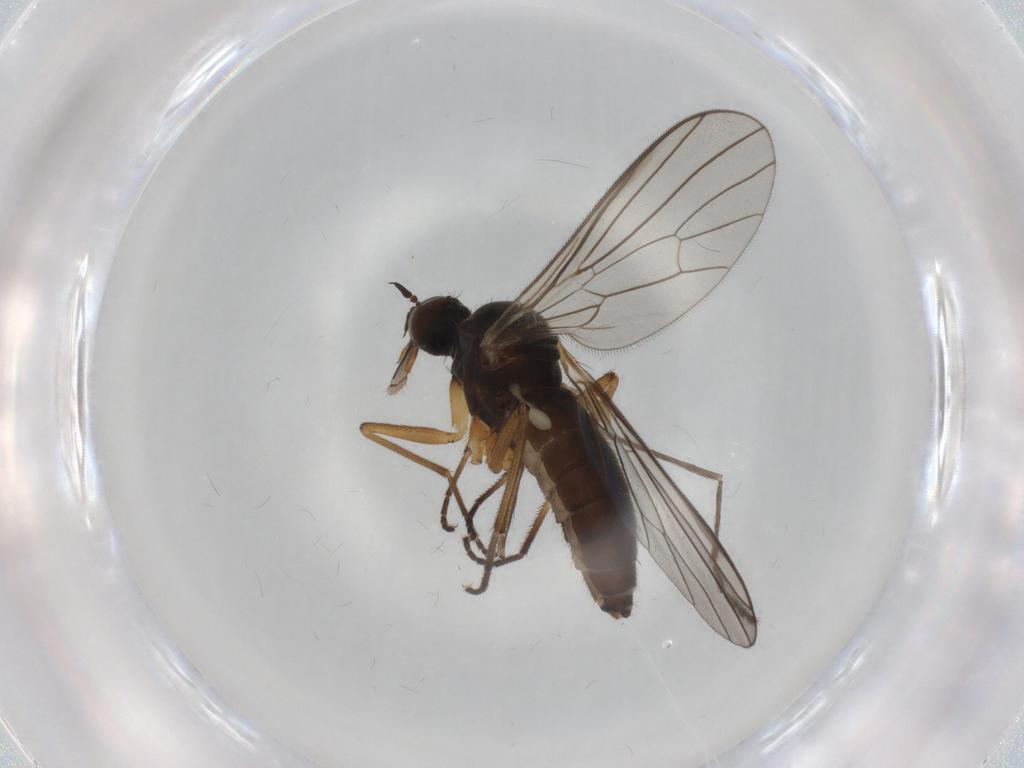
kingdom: Animalia
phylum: Arthropoda
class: Insecta
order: Diptera
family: Empididae
